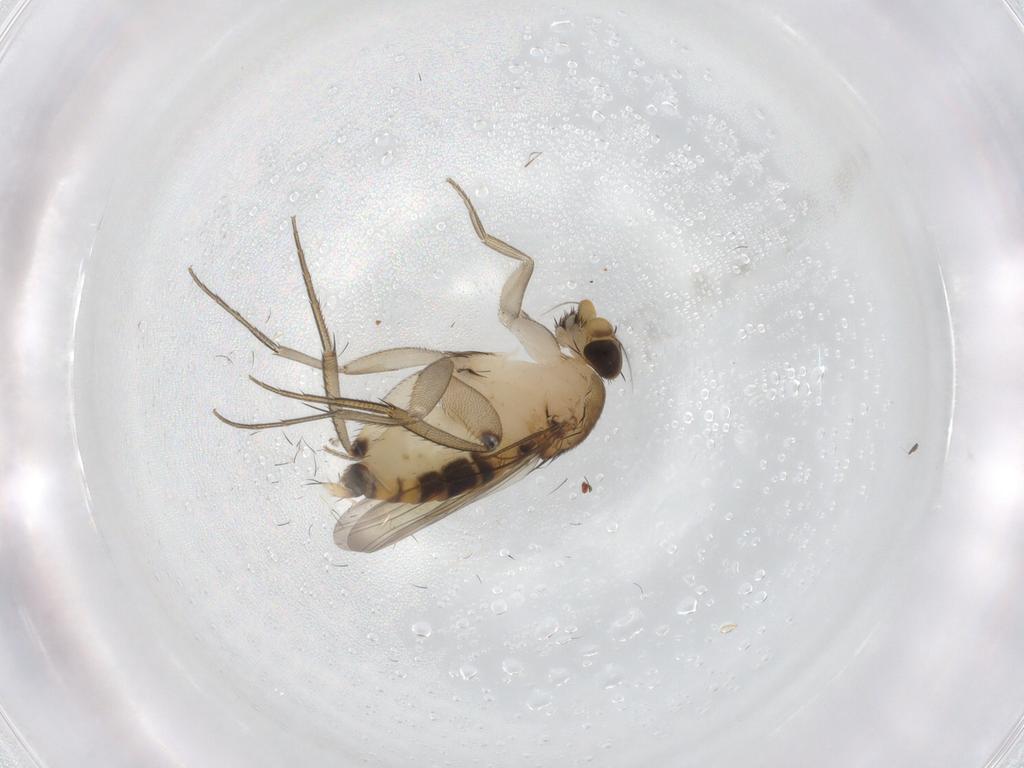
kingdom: Animalia
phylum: Arthropoda
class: Insecta
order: Diptera
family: Phoridae
